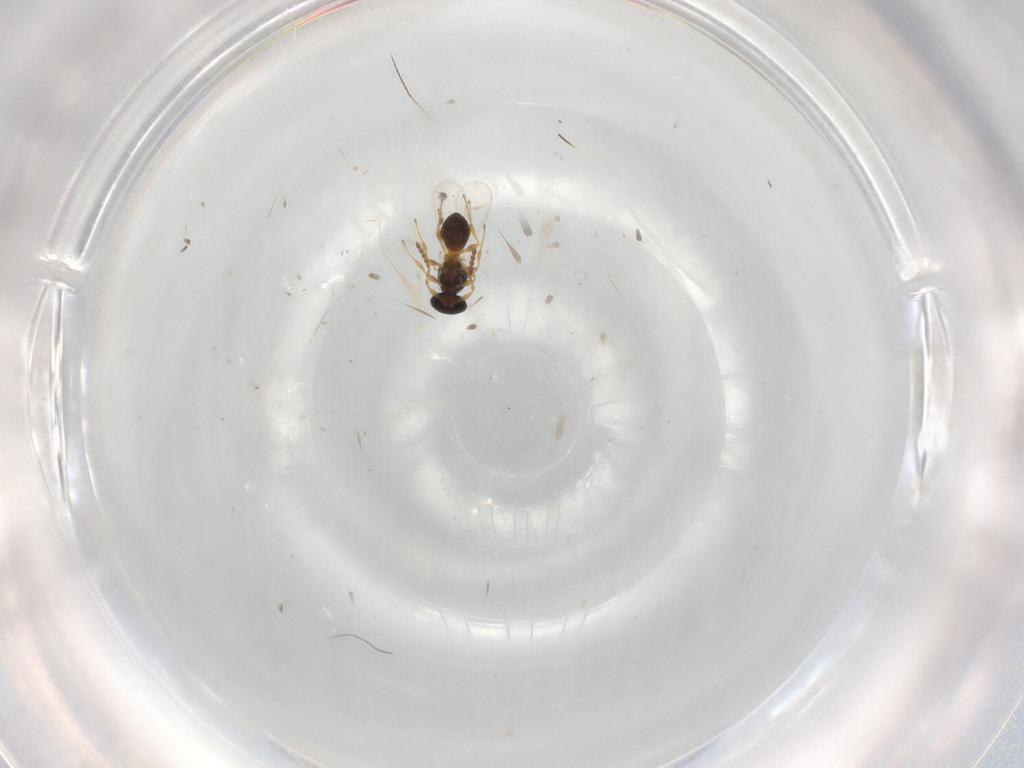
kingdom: Animalia
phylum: Arthropoda
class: Insecta
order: Hymenoptera
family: Platygastridae
